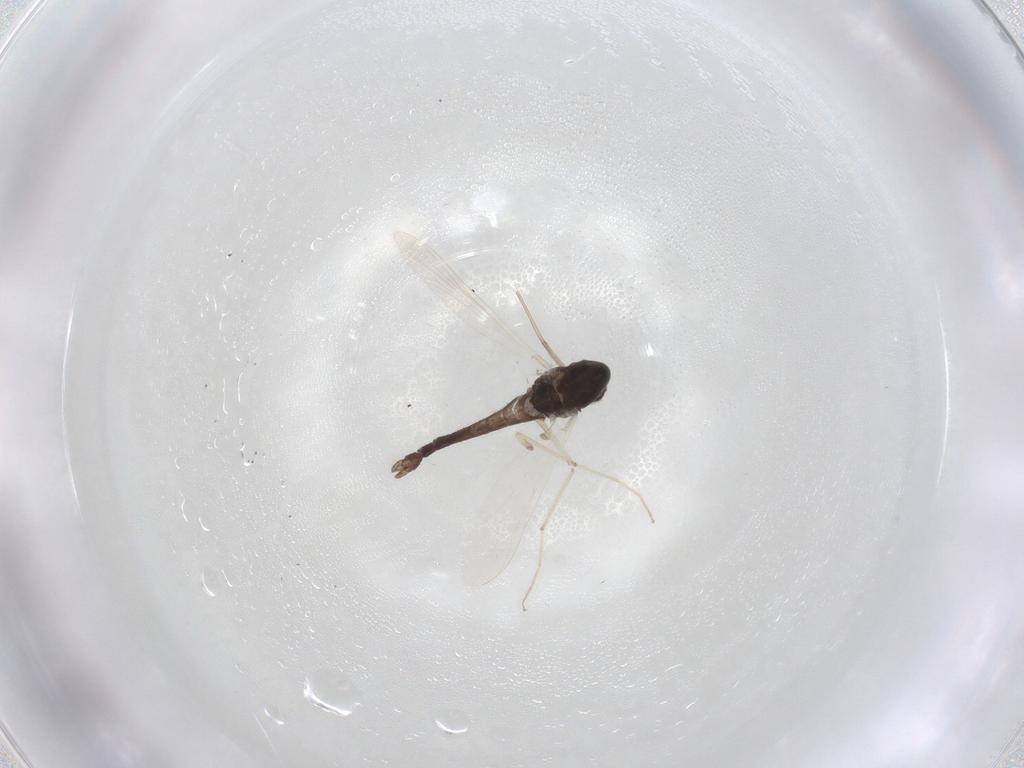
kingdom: Animalia
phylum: Arthropoda
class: Insecta
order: Diptera
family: Chironomidae
